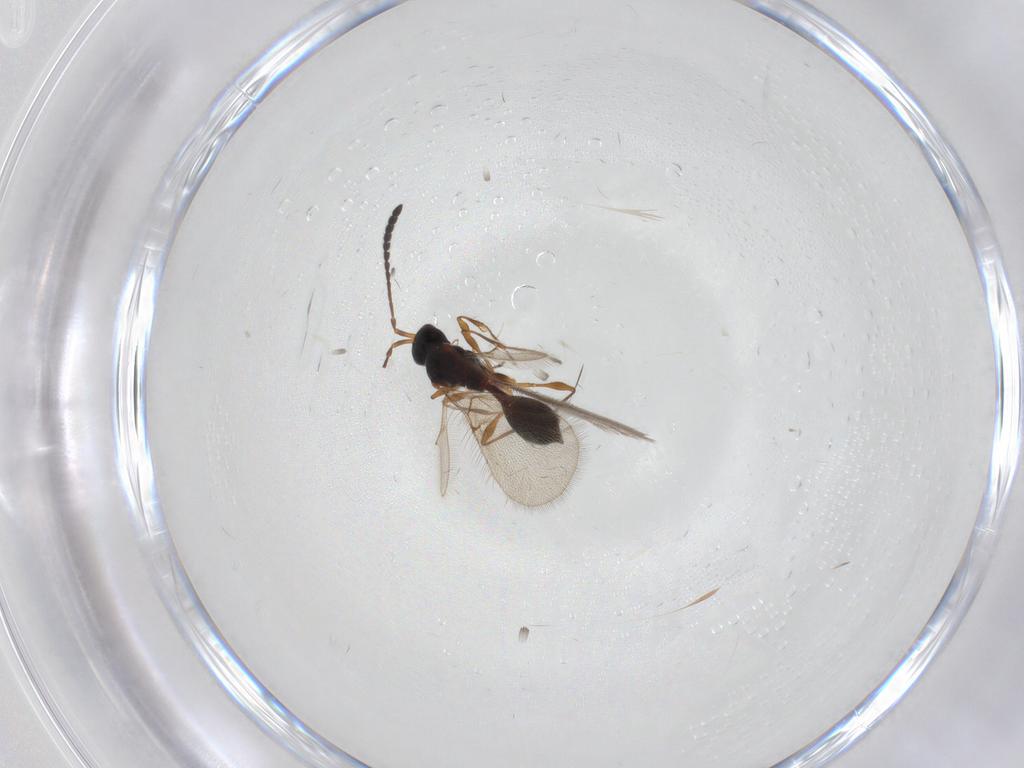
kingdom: Animalia
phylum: Arthropoda
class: Insecta
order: Hymenoptera
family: Diapriidae
